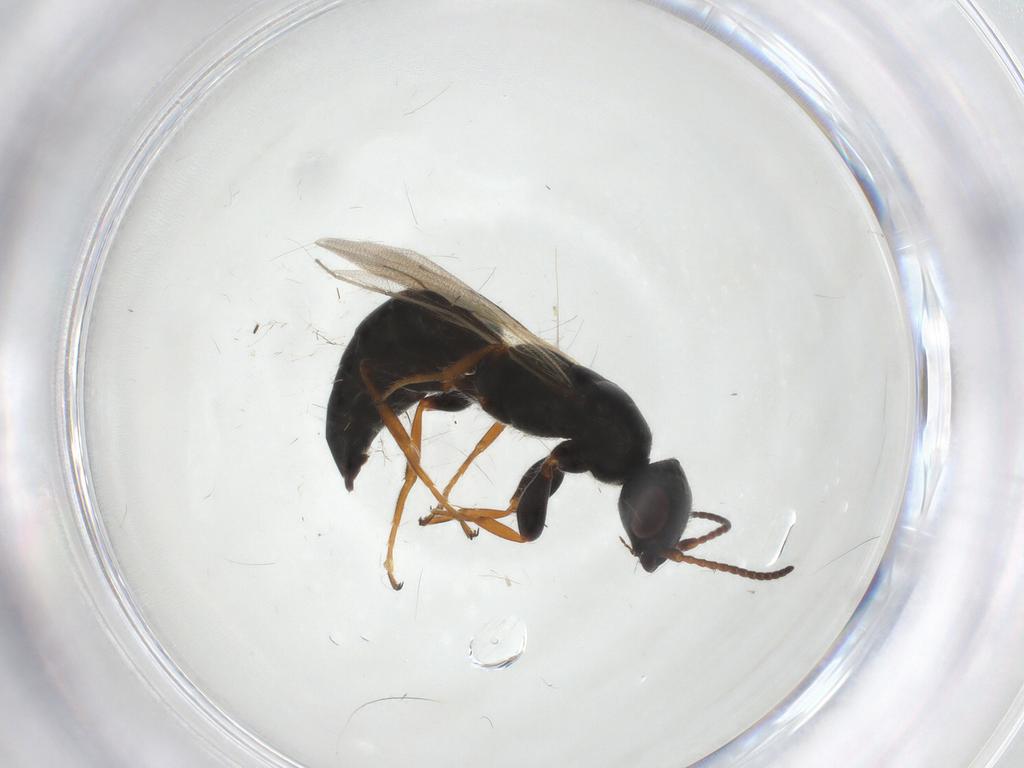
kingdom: Animalia
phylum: Arthropoda
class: Insecta
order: Hymenoptera
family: Bethylidae
